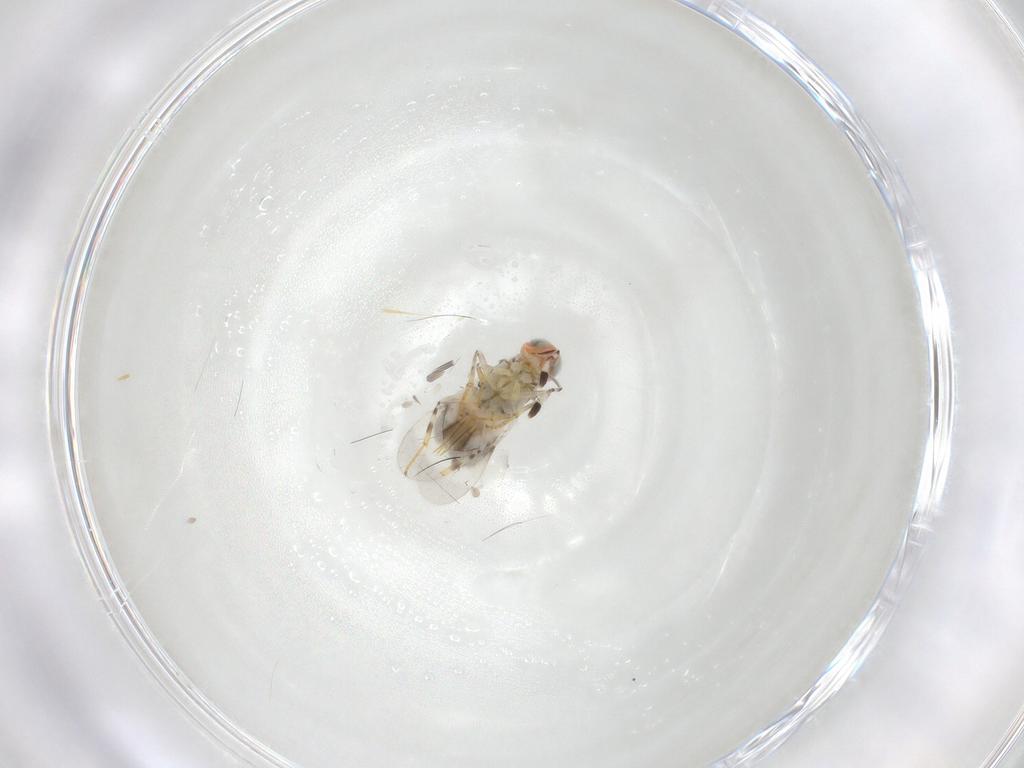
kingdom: Animalia
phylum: Arthropoda
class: Insecta
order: Hymenoptera
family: Encyrtidae
